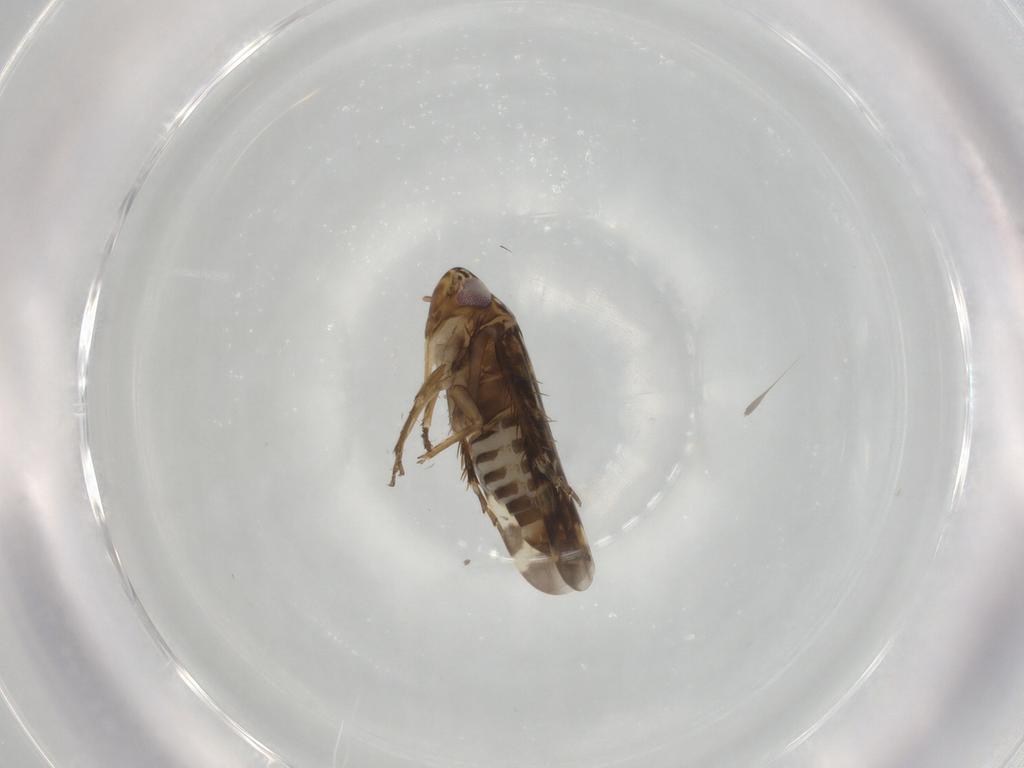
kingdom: Animalia
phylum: Arthropoda
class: Insecta
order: Hemiptera
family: Cicadellidae
